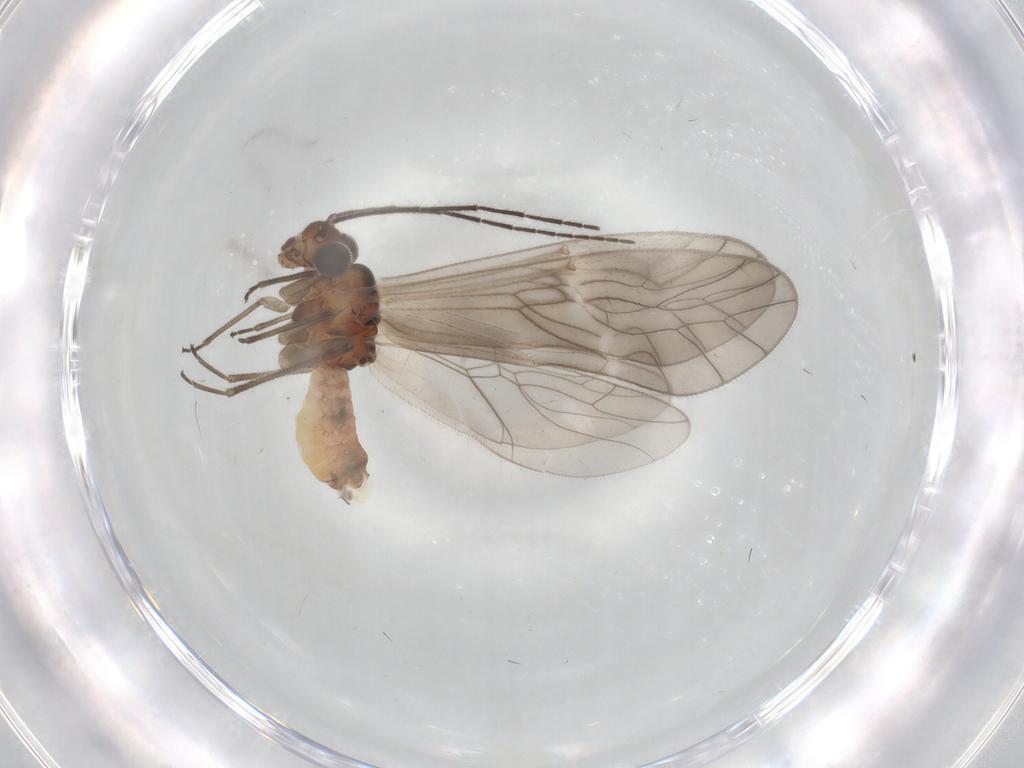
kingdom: Animalia
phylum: Arthropoda
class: Insecta
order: Psocodea
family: Caeciliusidae
